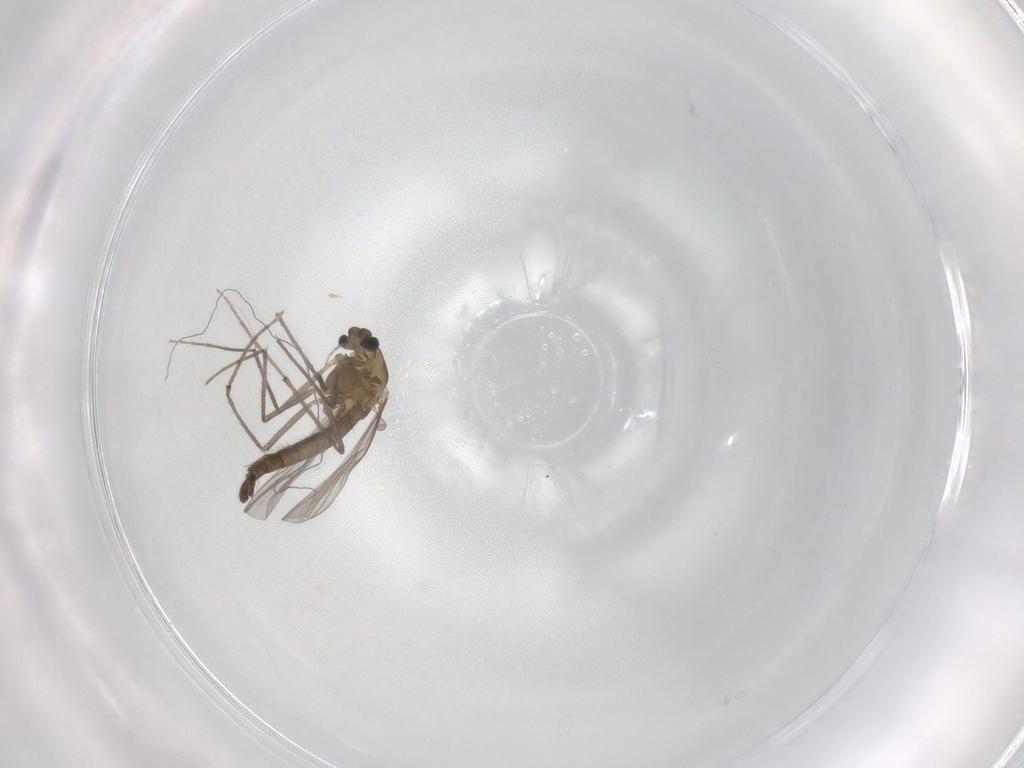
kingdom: Animalia
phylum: Arthropoda
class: Insecta
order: Diptera
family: Chironomidae
